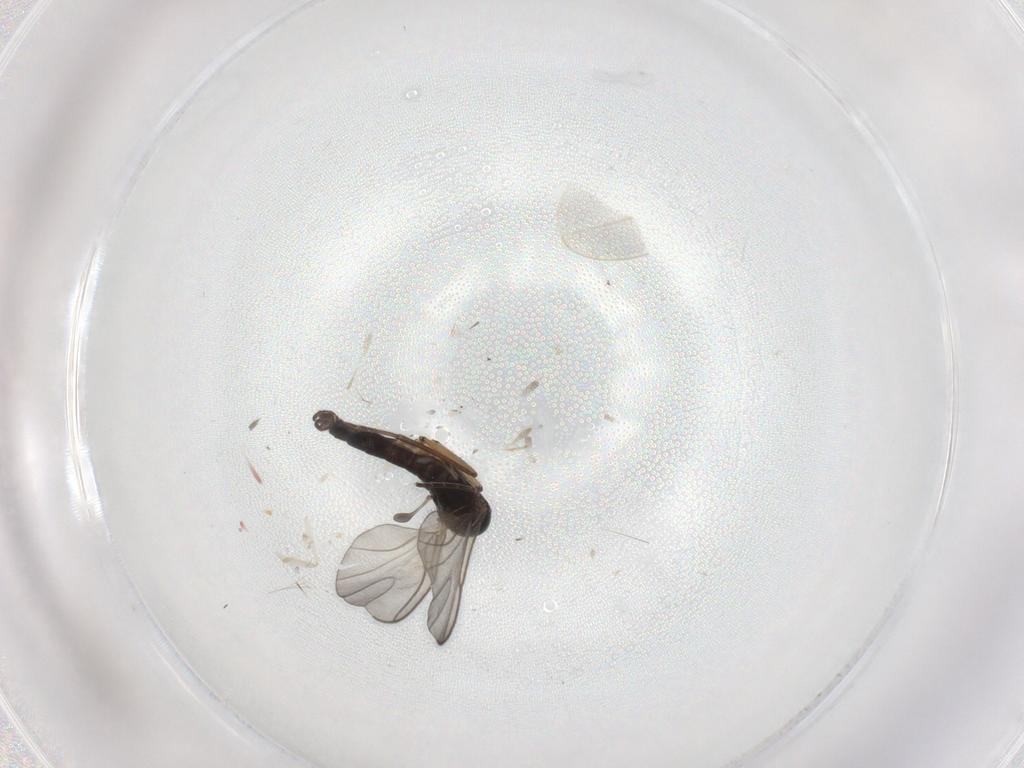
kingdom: Animalia
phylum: Arthropoda
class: Insecta
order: Diptera
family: Sciaridae
